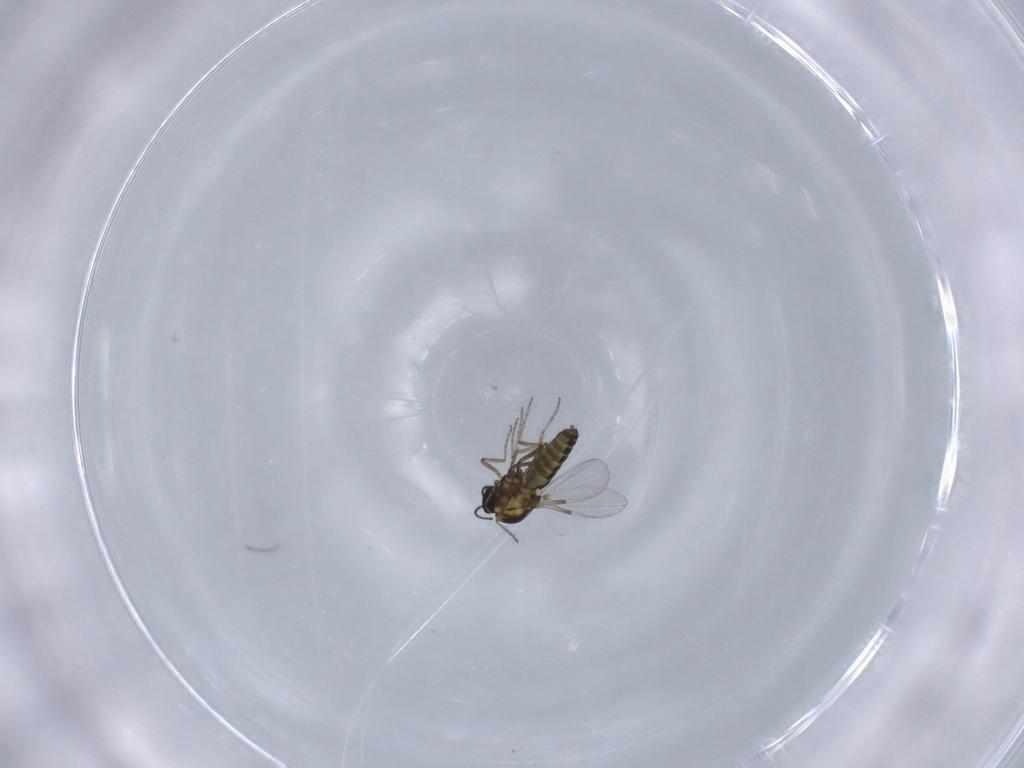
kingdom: Animalia
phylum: Arthropoda
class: Insecta
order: Diptera
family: Ceratopogonidae
